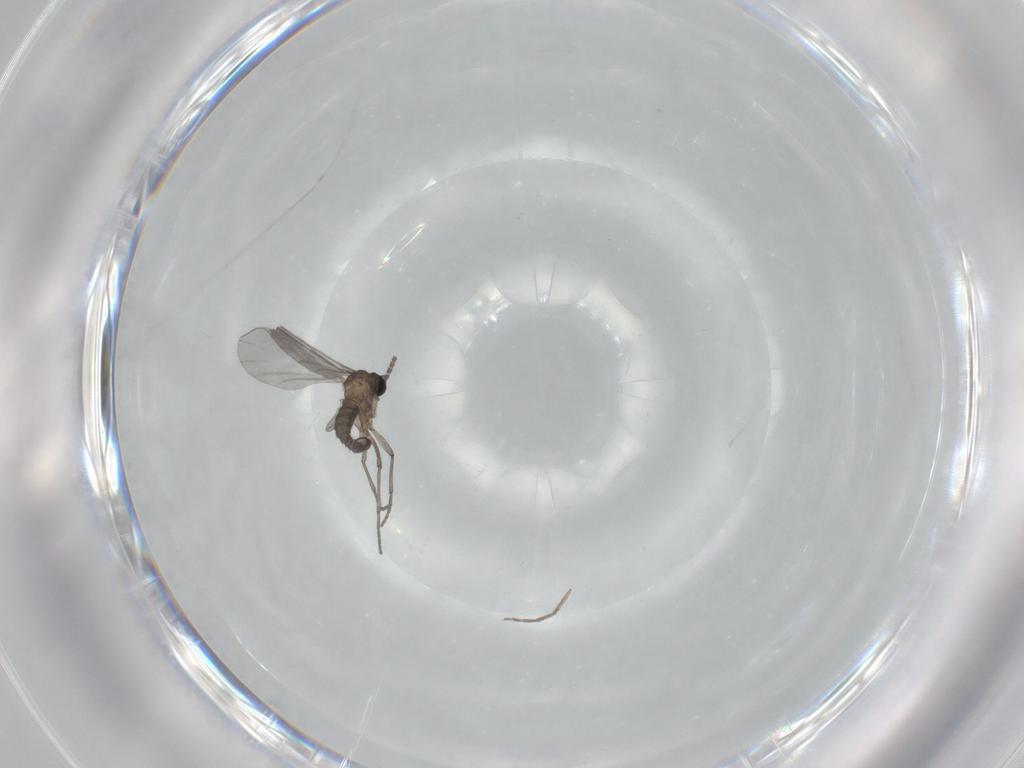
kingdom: Animalia
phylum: Arthropoda
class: Insecta
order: Diptera
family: Sciaridae
